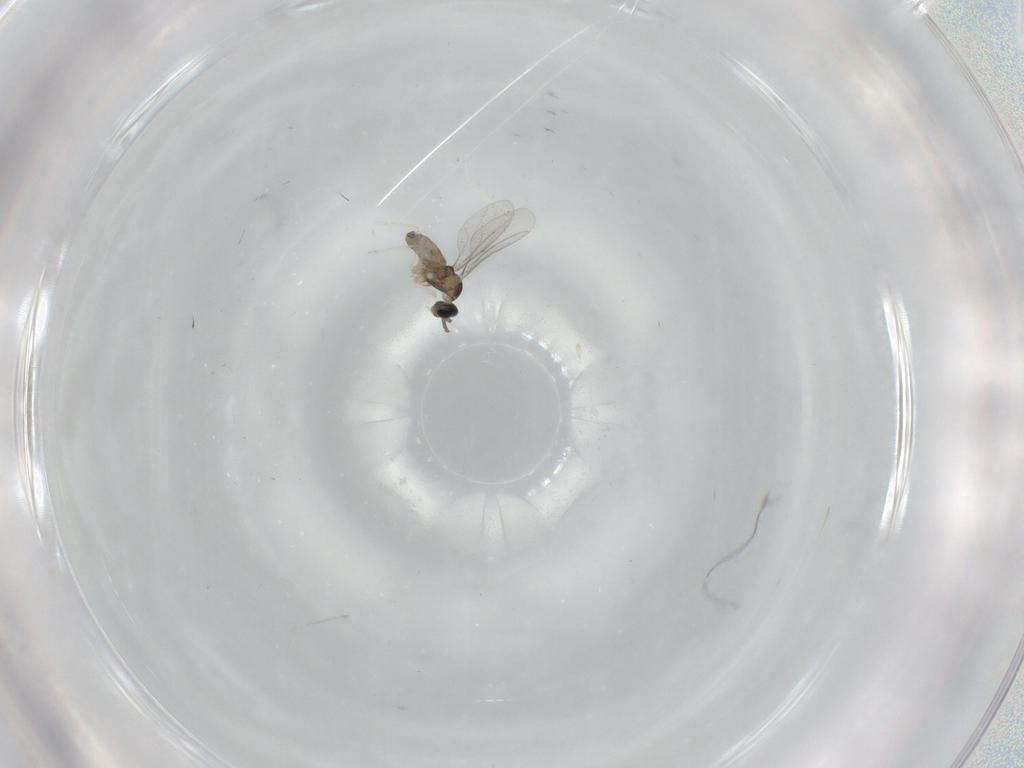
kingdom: Animalia
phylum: Arthropoda
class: Insecta
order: Diptera
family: Cecidomyiidae
